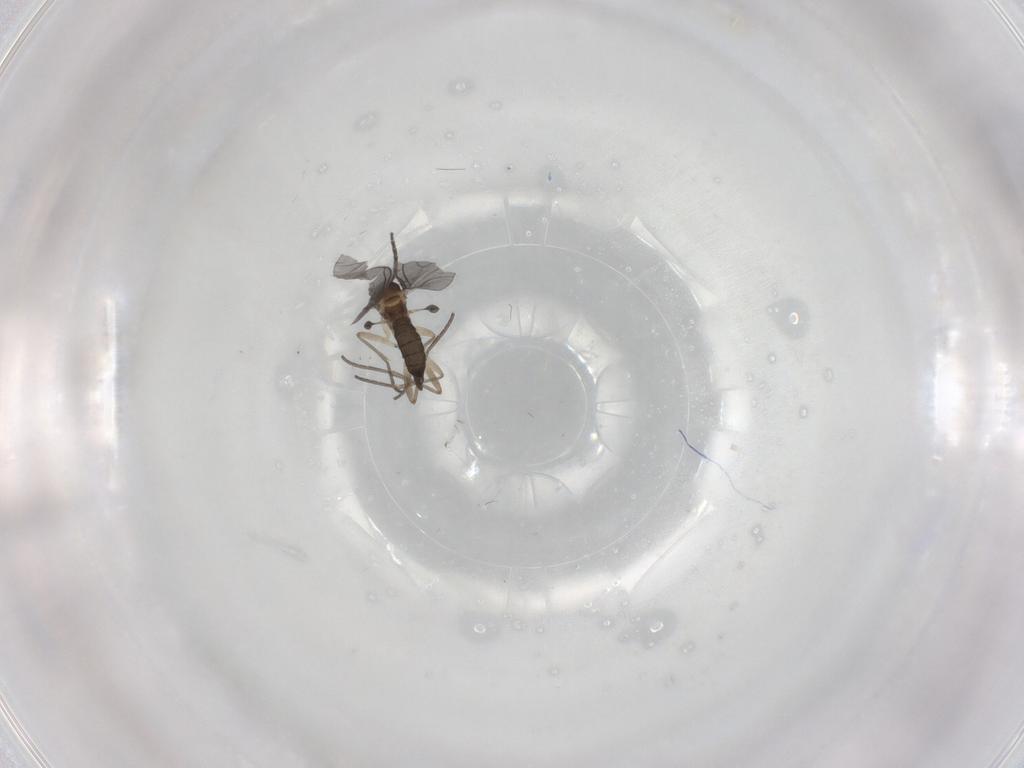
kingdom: Animalia
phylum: Arthropoda
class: Insecta
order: Diptera
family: Sciaridae
